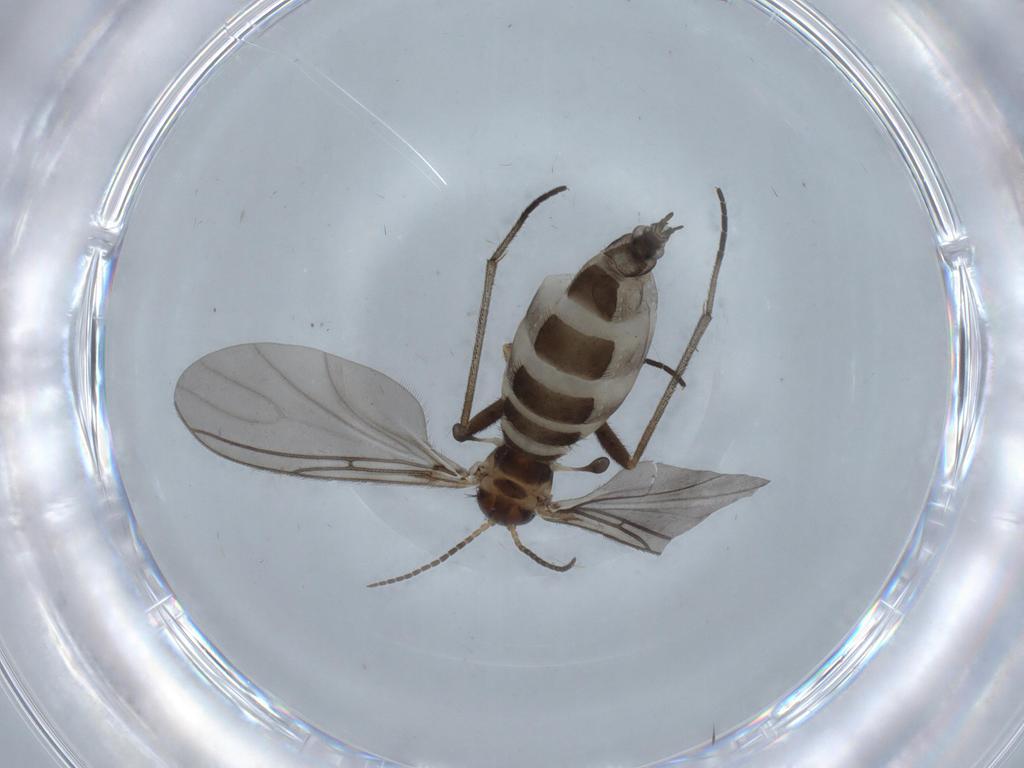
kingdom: Animalia
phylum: Arthropoda
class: Insecta
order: Diptera
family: Sciaridae
